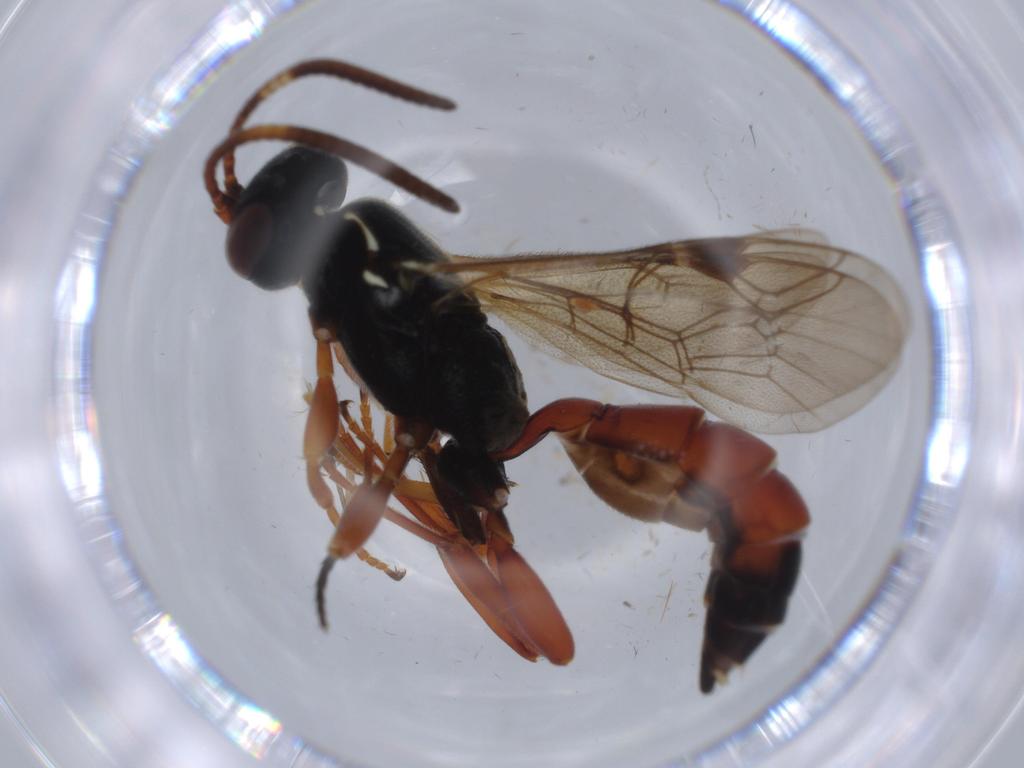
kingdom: Animalia
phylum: Arthropoda
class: Insecta
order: Hymenoptera
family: Ichneumonidae
